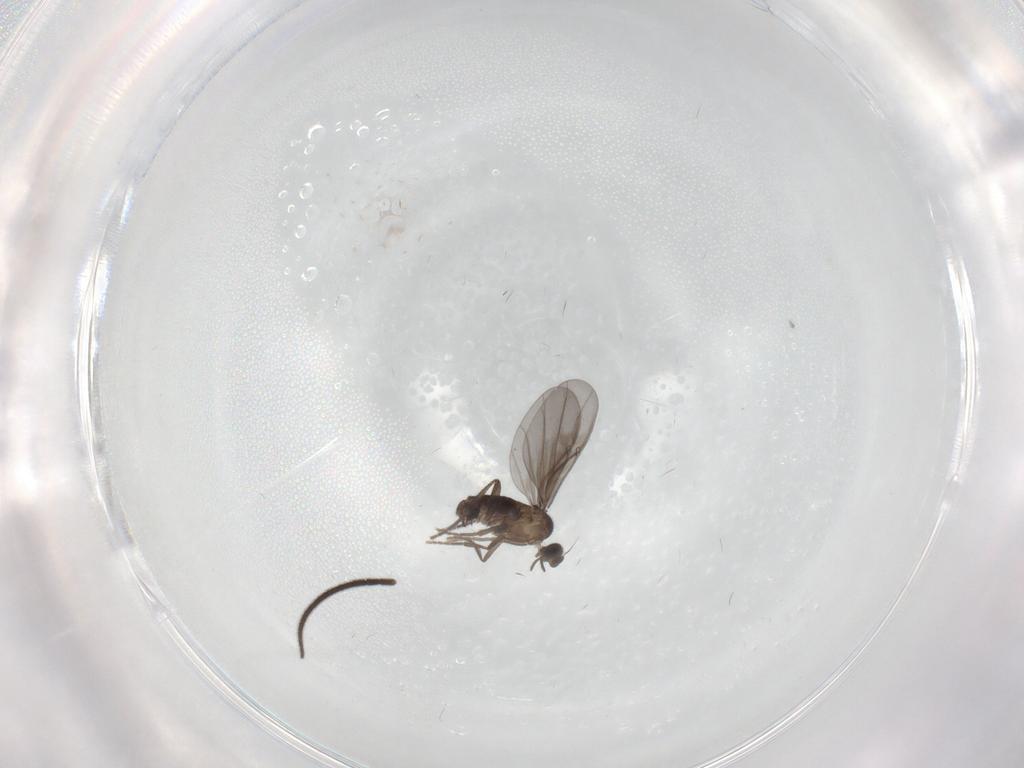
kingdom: Animalia
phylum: Arthropoda
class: Insecta
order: Diptera
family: Phoridae
